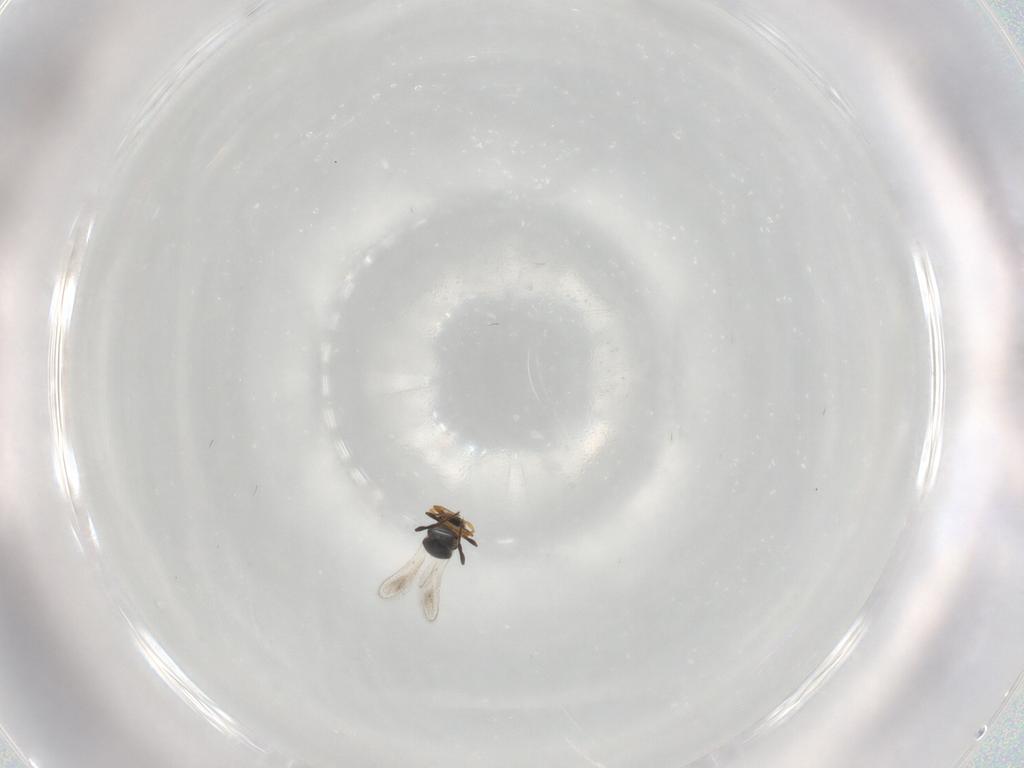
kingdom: Animalia
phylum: Arthropoda
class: Insecta
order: Hymenoptera
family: Platygastridae
